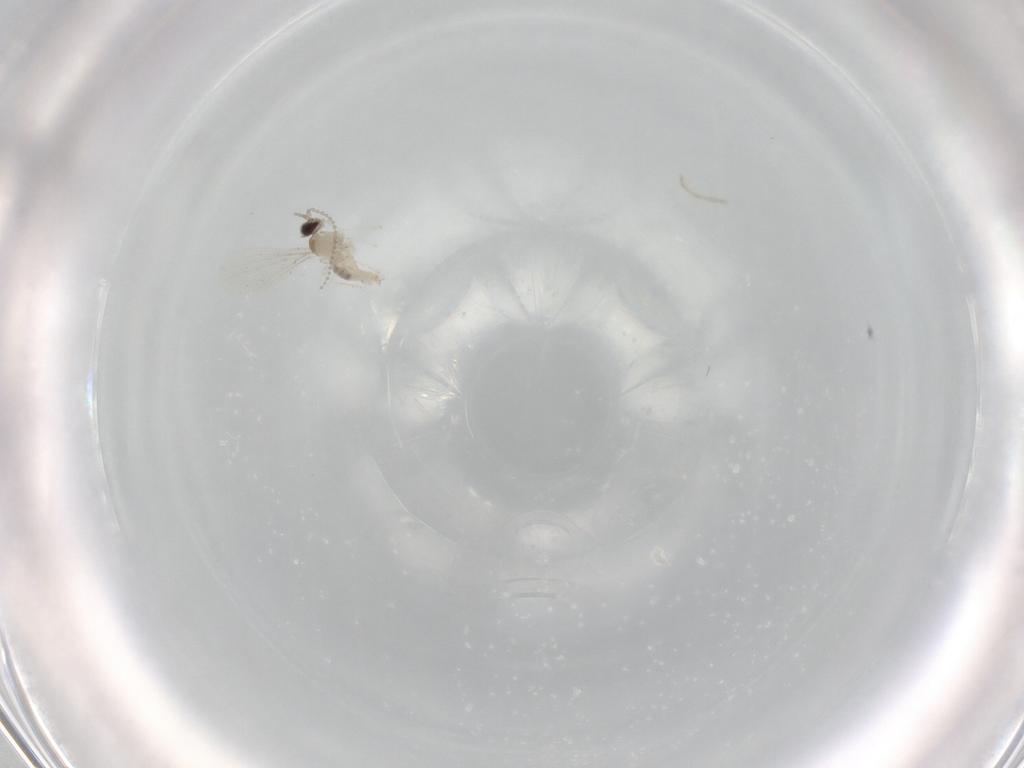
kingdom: Animalia
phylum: Arthropoda
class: Insecta
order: Diptera
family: Cecidomyiidae
